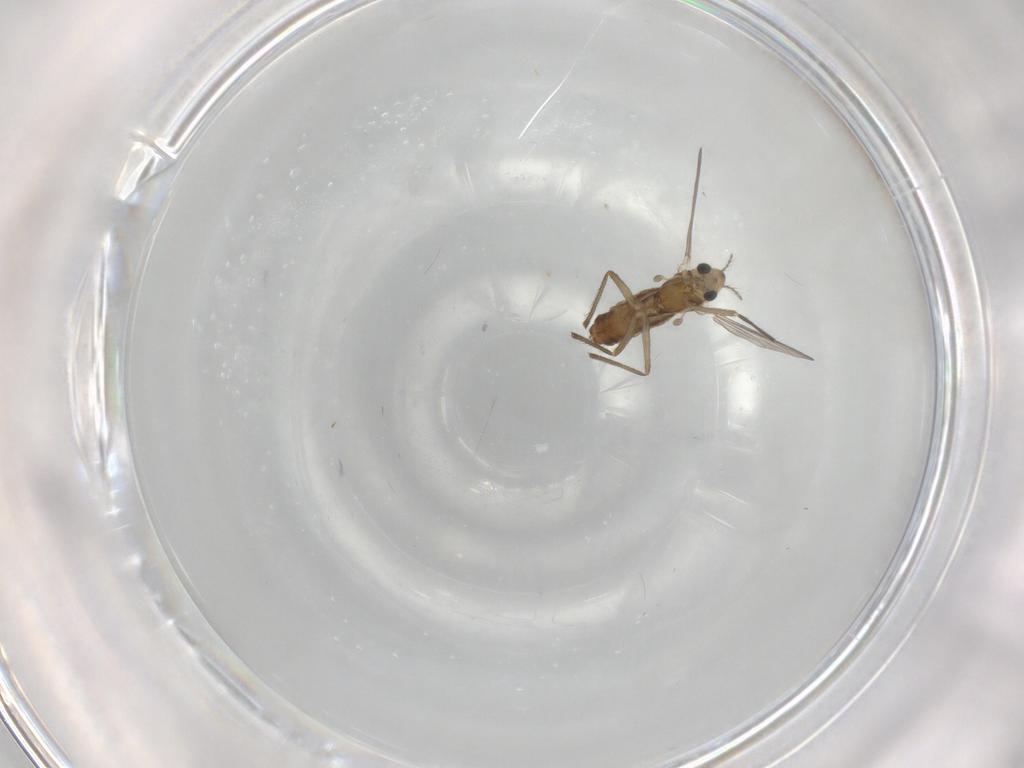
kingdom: Animalia
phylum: Arthropoda
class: Insecta
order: Diptera
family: Chironomidae
